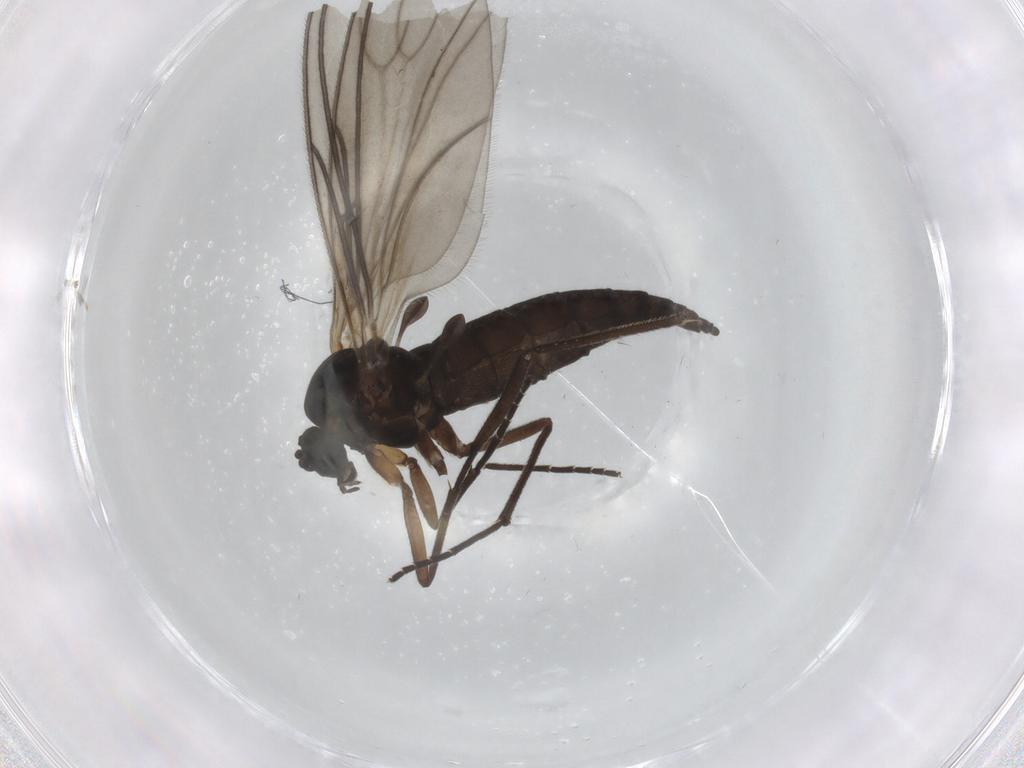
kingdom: Animalia
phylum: Arthropoda
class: Insecta
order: Diptera
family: Sciaridae
